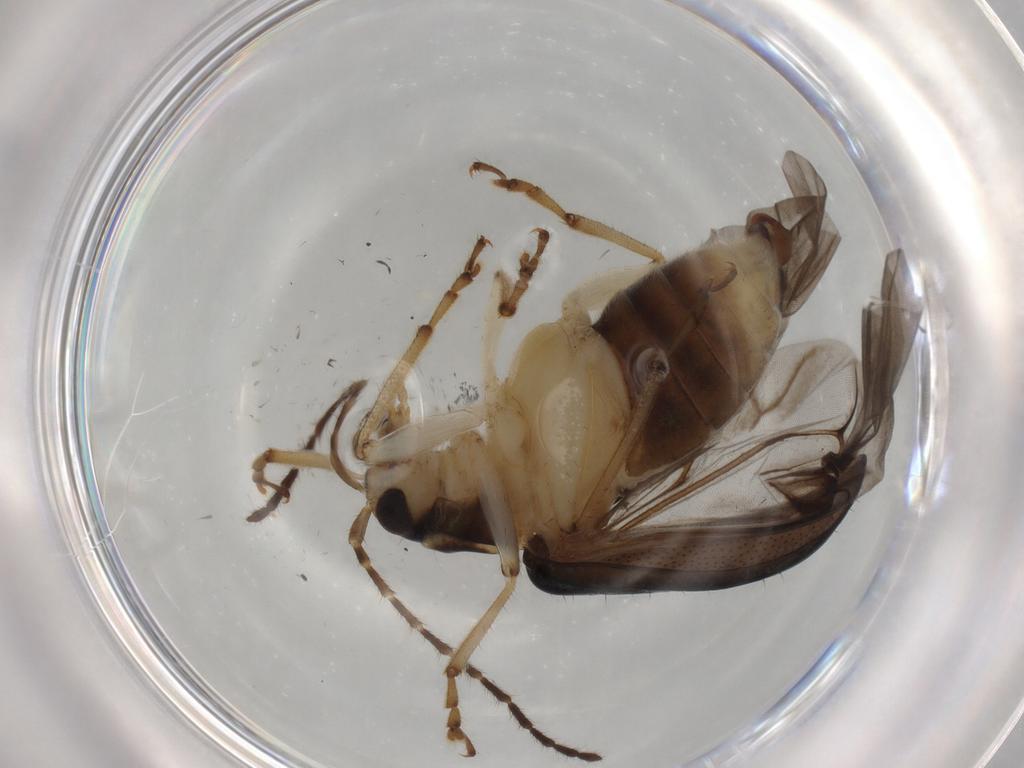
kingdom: Animalia
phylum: Arthropoda
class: Insecta
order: Coleoptera
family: Chrysomelidae
